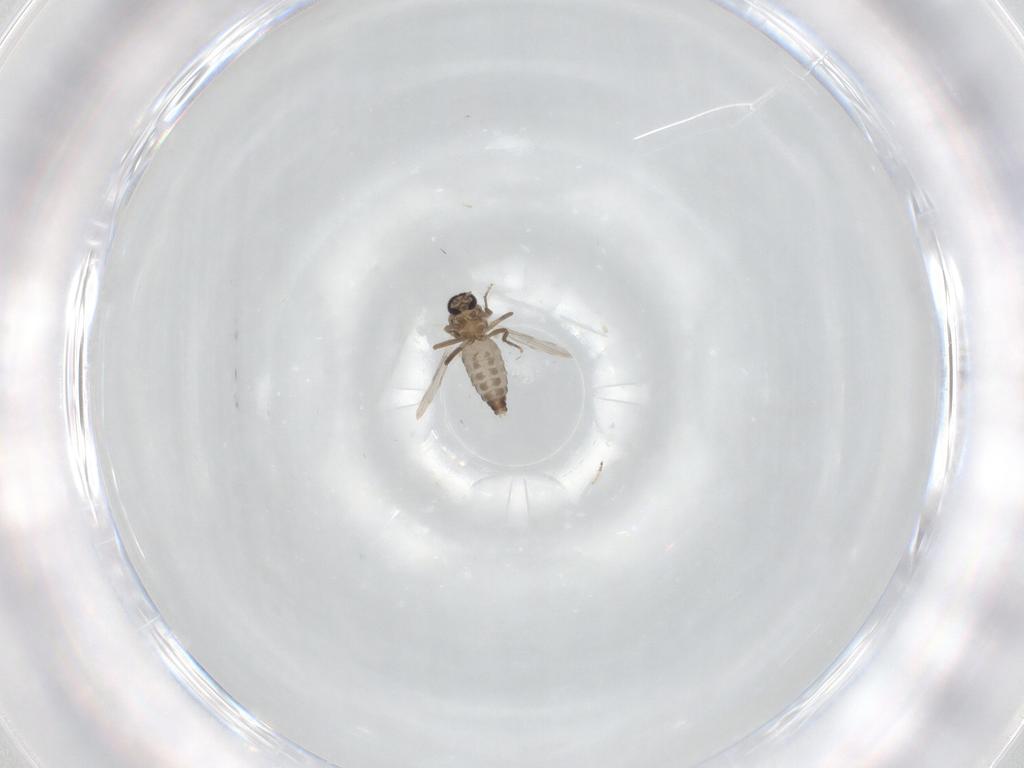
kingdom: Animalia
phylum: Arthropoda
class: Insecta
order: Diptera
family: Ceratopogonidae
